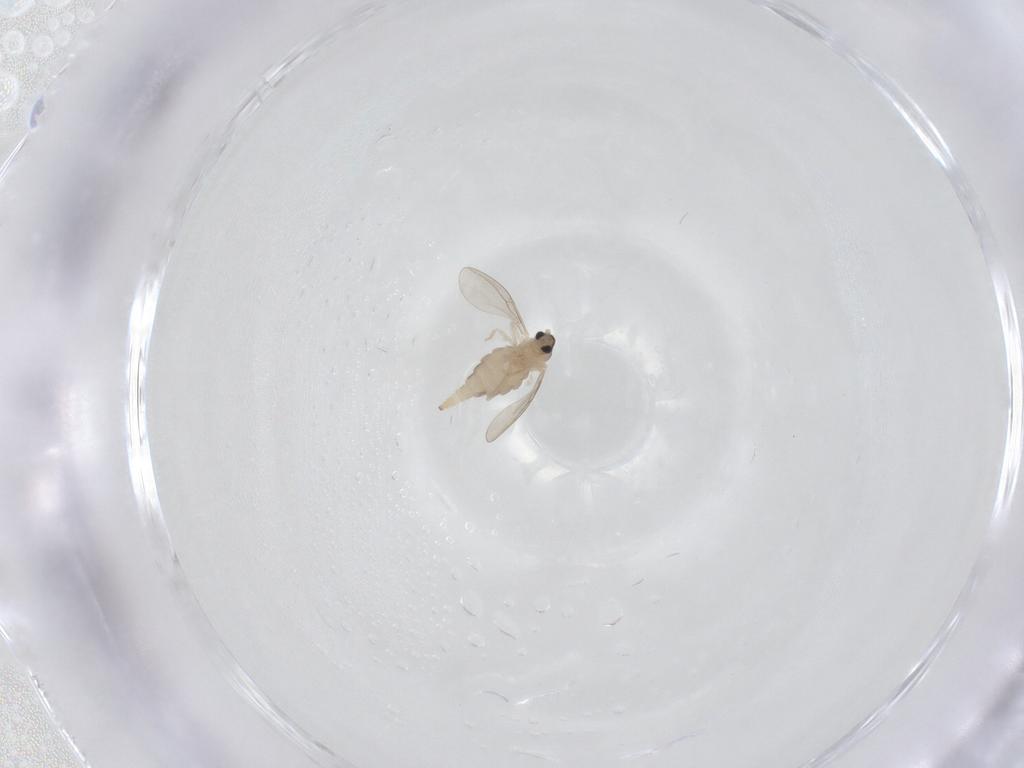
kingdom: Animalia
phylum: Arthropoda
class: Insecta
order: Diptera
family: Cecidomyiidae
